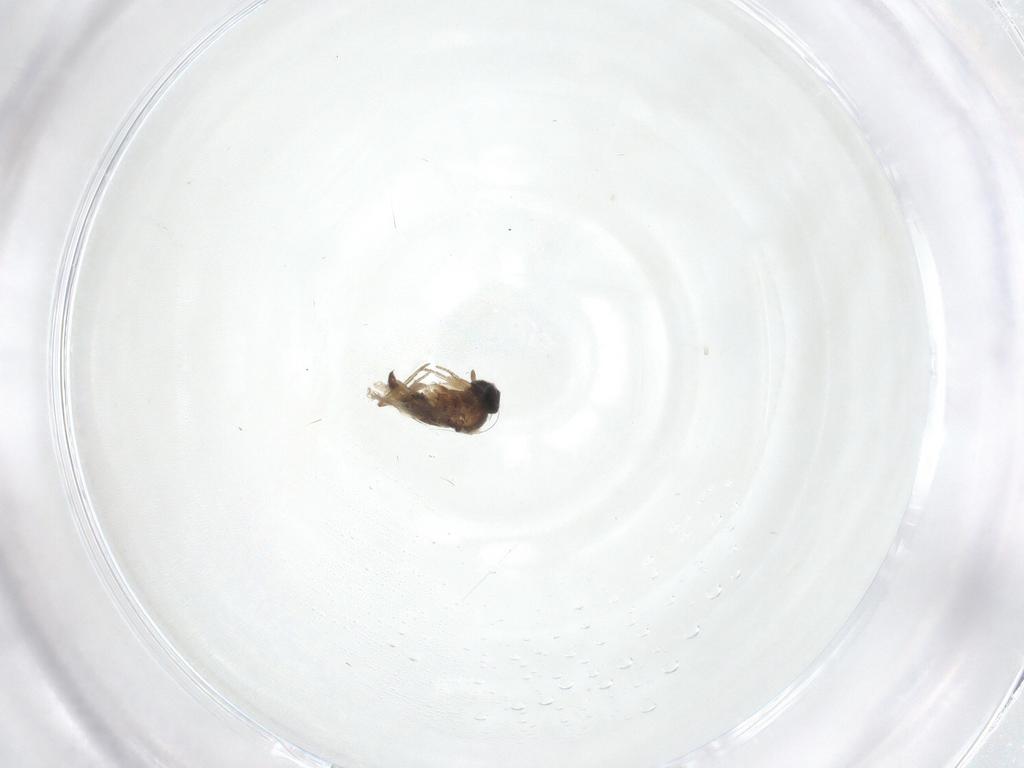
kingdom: Animalia
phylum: Arthropoda
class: Insecta
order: Diptera
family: Phoridae
